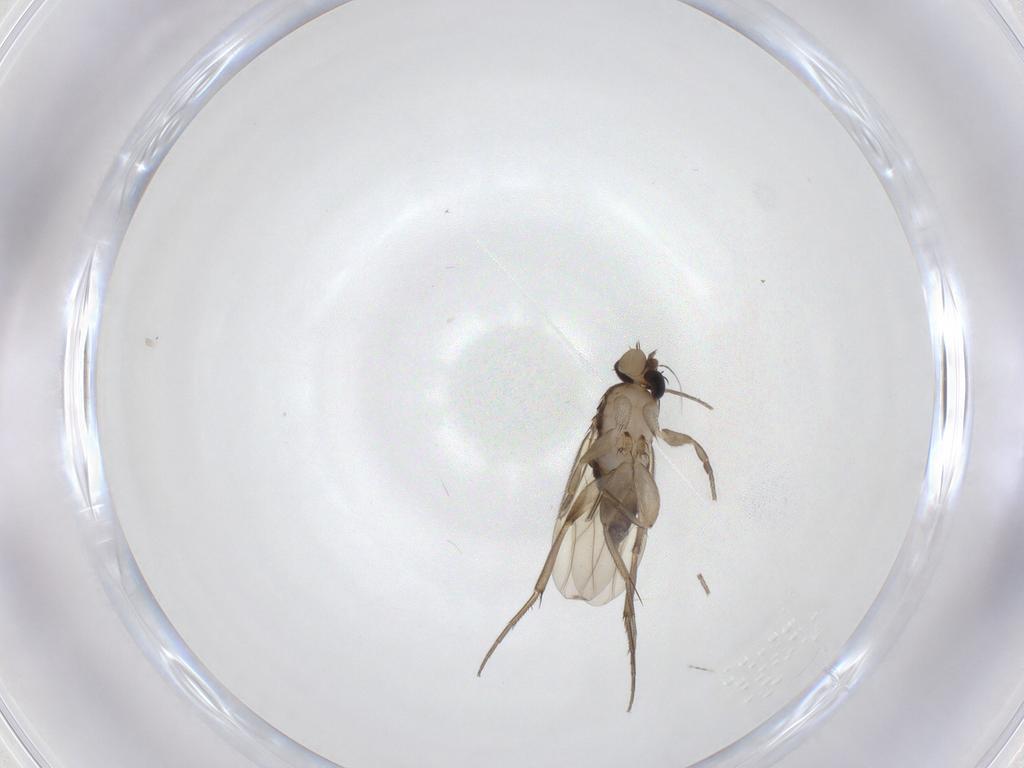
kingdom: Animalia
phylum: Arthropoda
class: Insecta
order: Diptera
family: Phoridae
